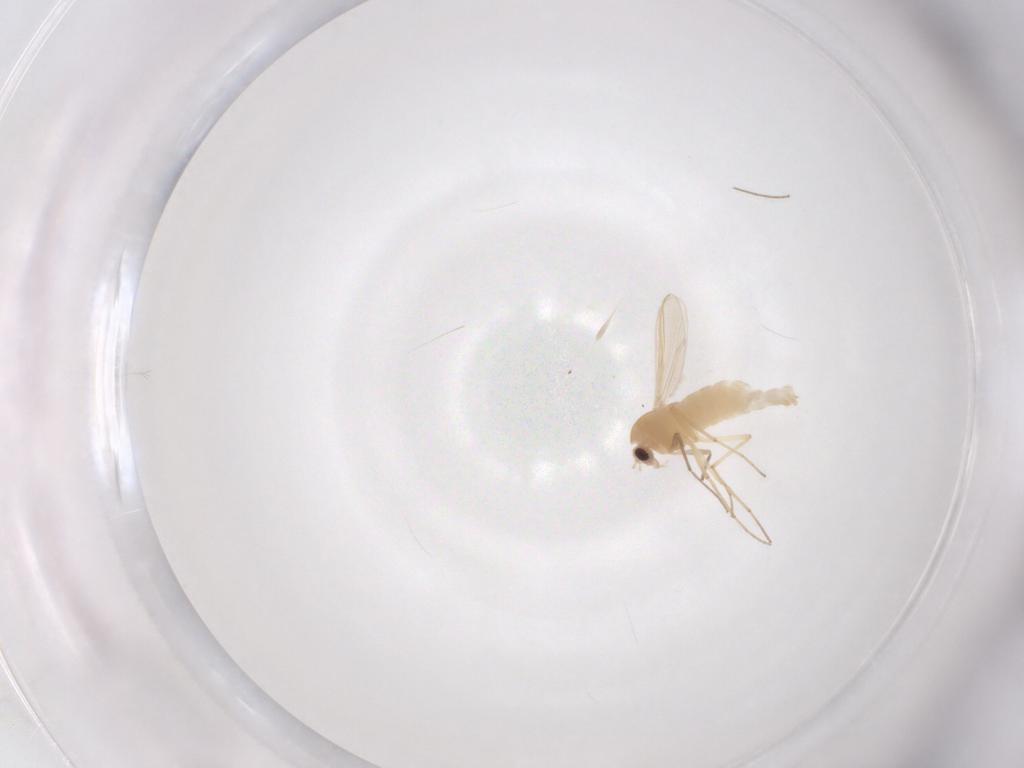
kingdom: Animalia
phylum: Arthropoda
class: Insecta
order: Diptera
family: Chironomidae
